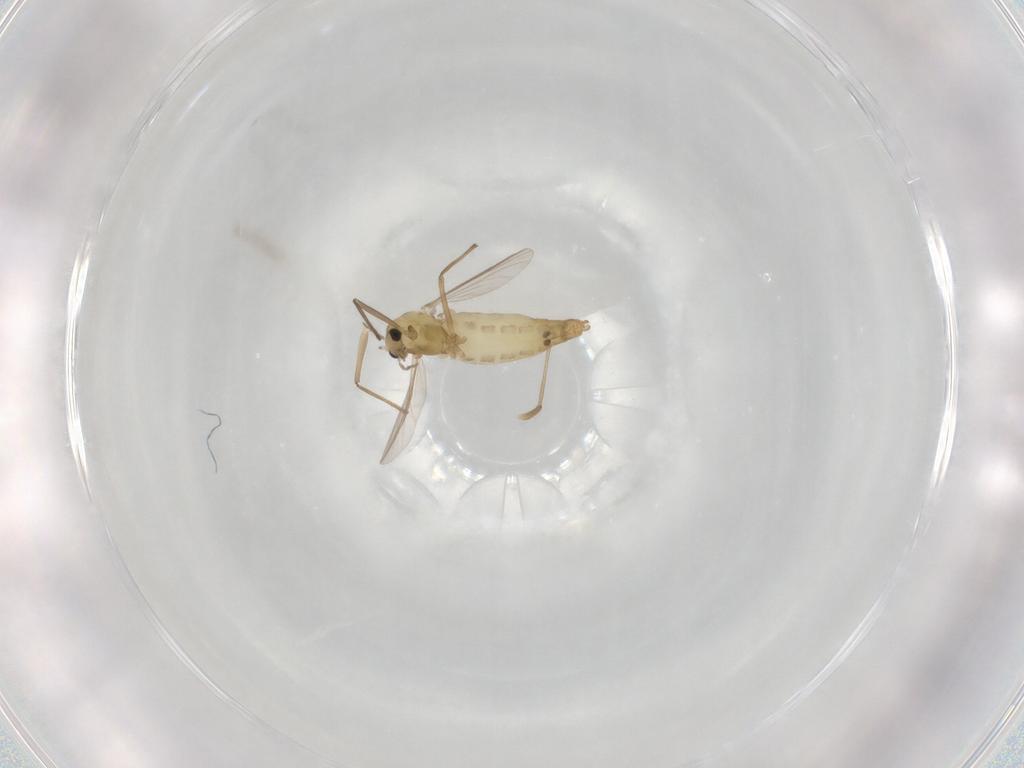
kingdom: Animalia
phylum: Arthropoda
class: Insecta
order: Diptera
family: Chironomidae
